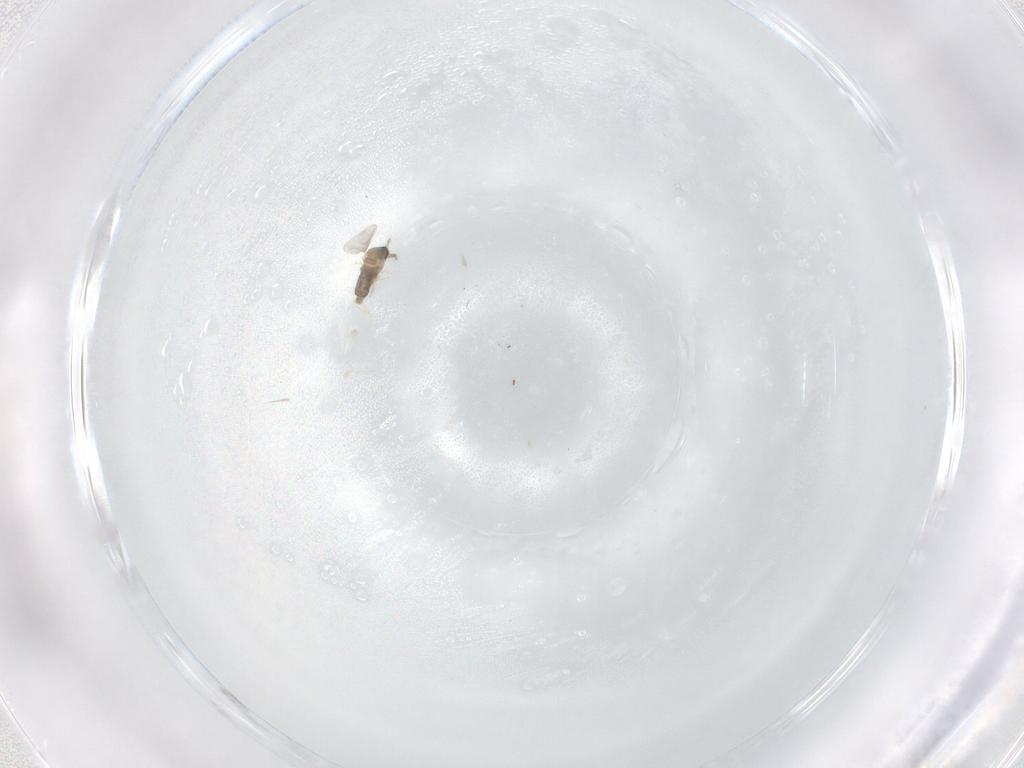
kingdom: Animalia
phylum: Arthropoda
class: Insecta
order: Diptera
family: Cecidomyiidae
